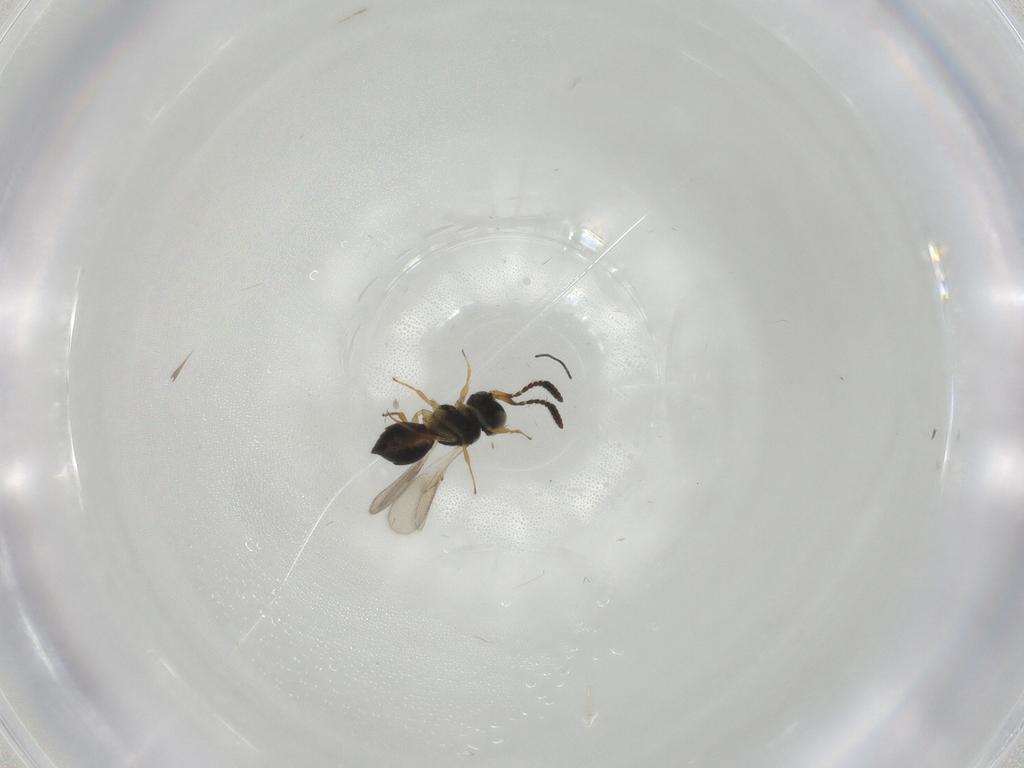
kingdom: Animalia
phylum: Arthropoda
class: Insecta
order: Hymenoptera
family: Scelionidae
